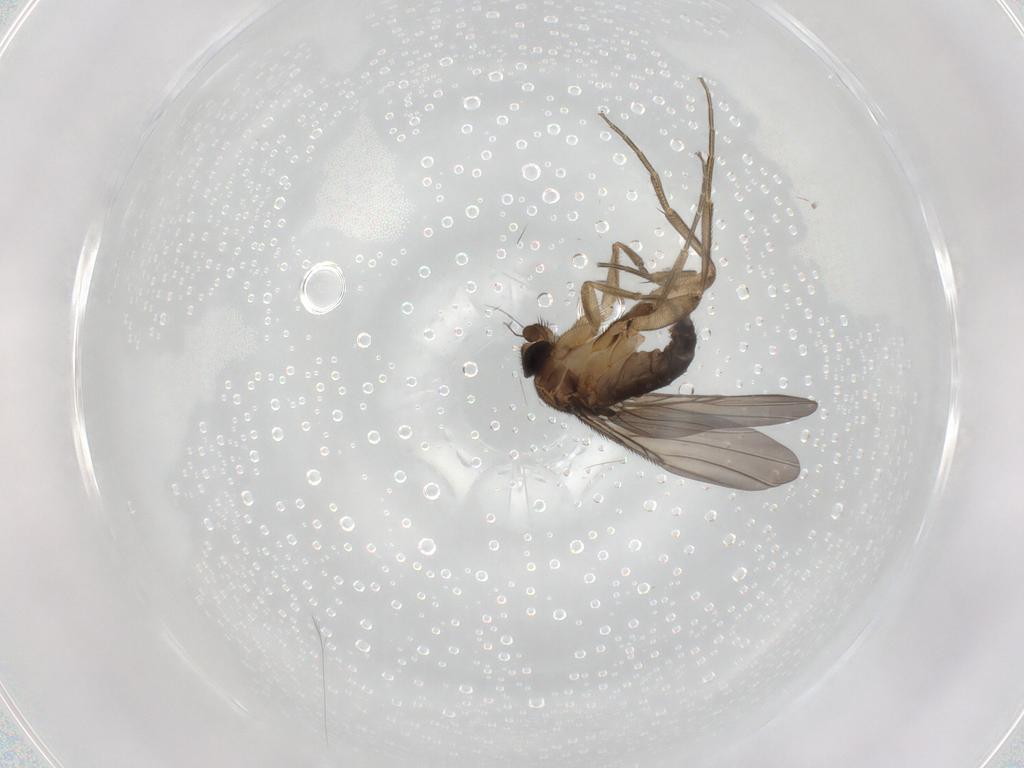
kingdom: Animalia
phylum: Arthropoda
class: Insecta
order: Diptera
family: Phoridae
